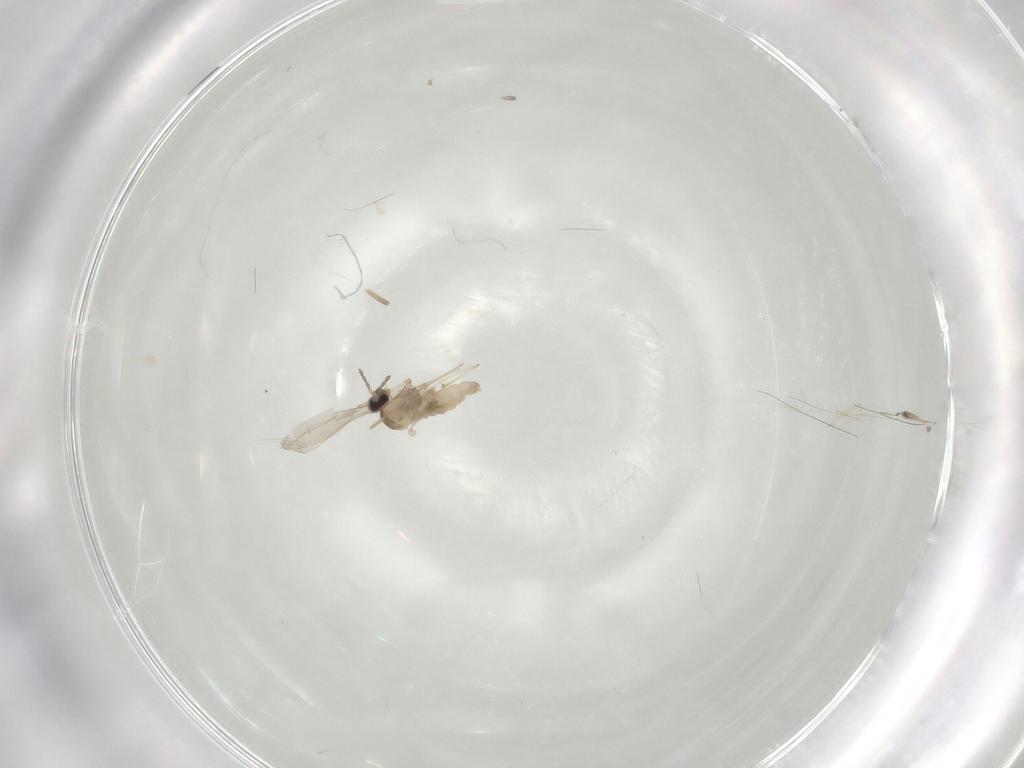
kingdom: Animalia
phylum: Arthropoda
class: Insecta
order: Diptera
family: Cecidomyiidae
